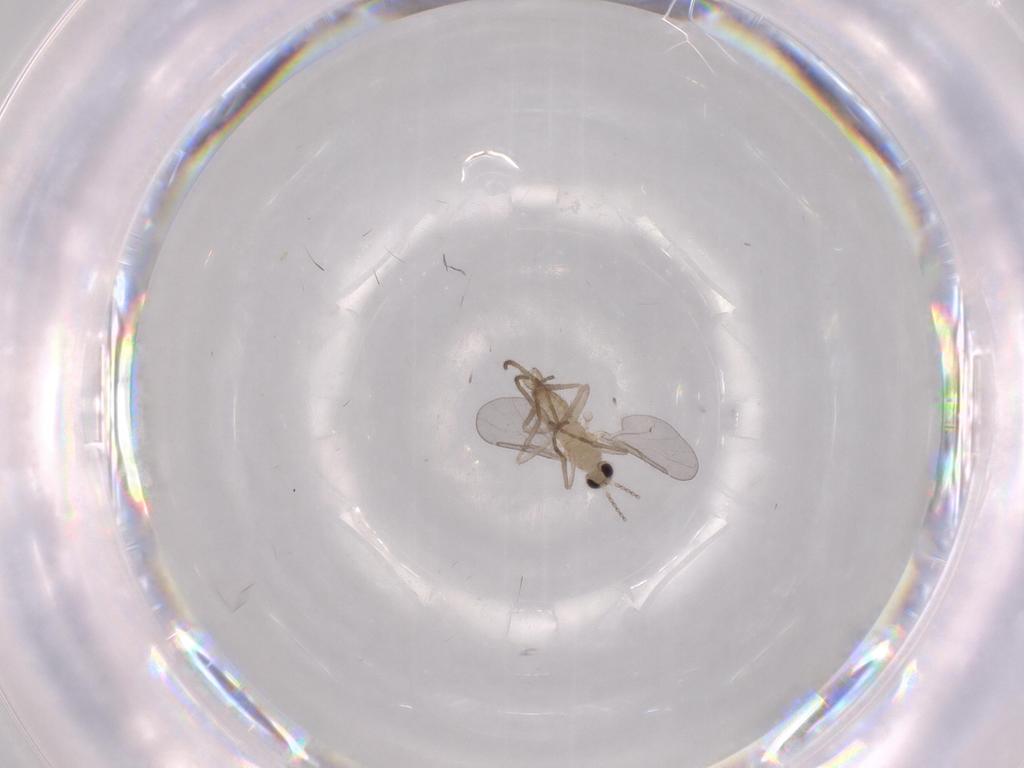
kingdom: Animalia
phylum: Arthropoda
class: Insecta
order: Diptera
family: Cecidomyiidae
